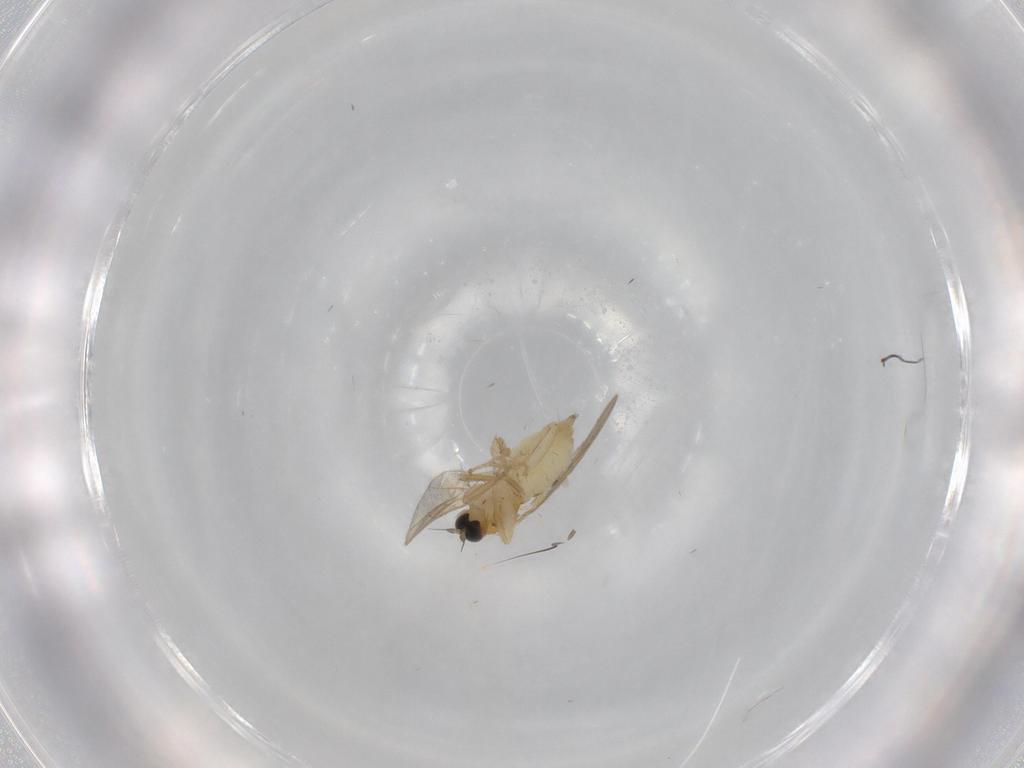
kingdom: Animalia
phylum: Arthropoda
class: Insecta
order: Diptera
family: Hybotidae
